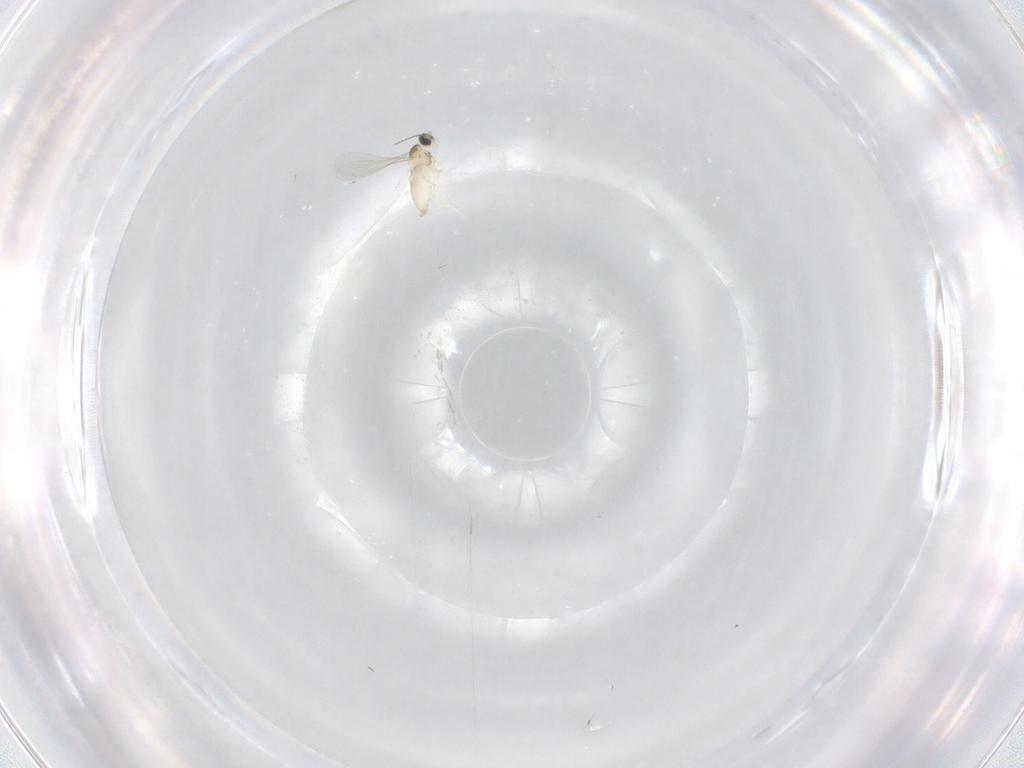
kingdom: Animalia
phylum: Arthropoda
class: Insecta
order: Diptera
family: Cecidomyiidae
